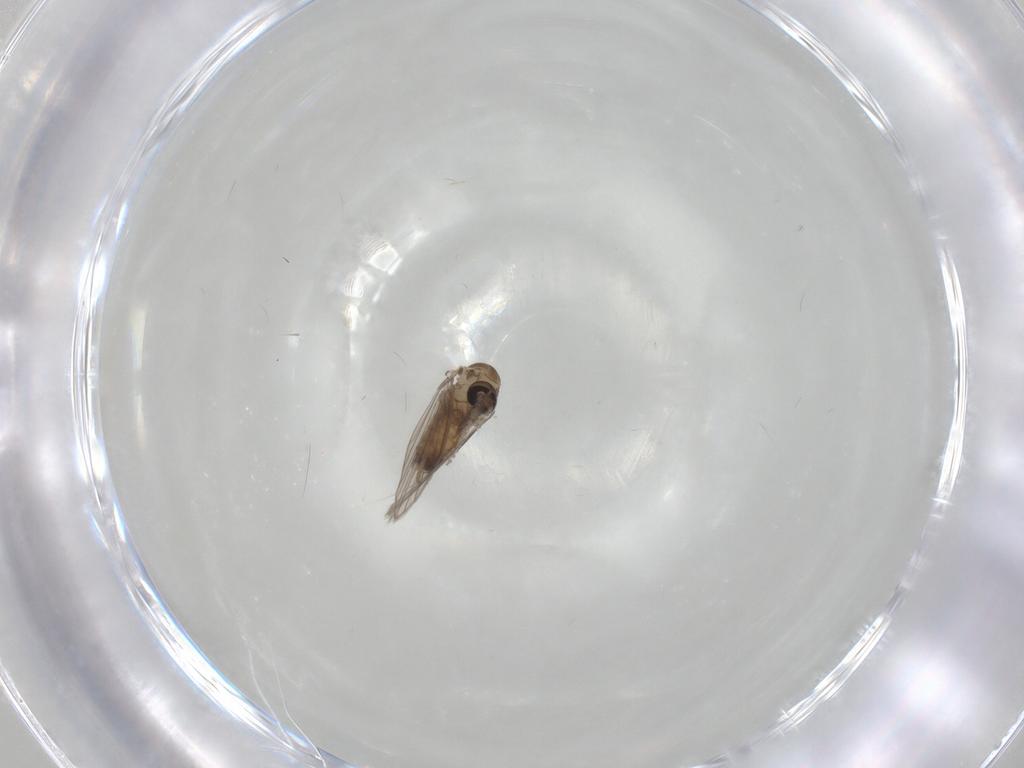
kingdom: Animalia
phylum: Arthropoda
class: Insecta
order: Diptera
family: Psychodidae
